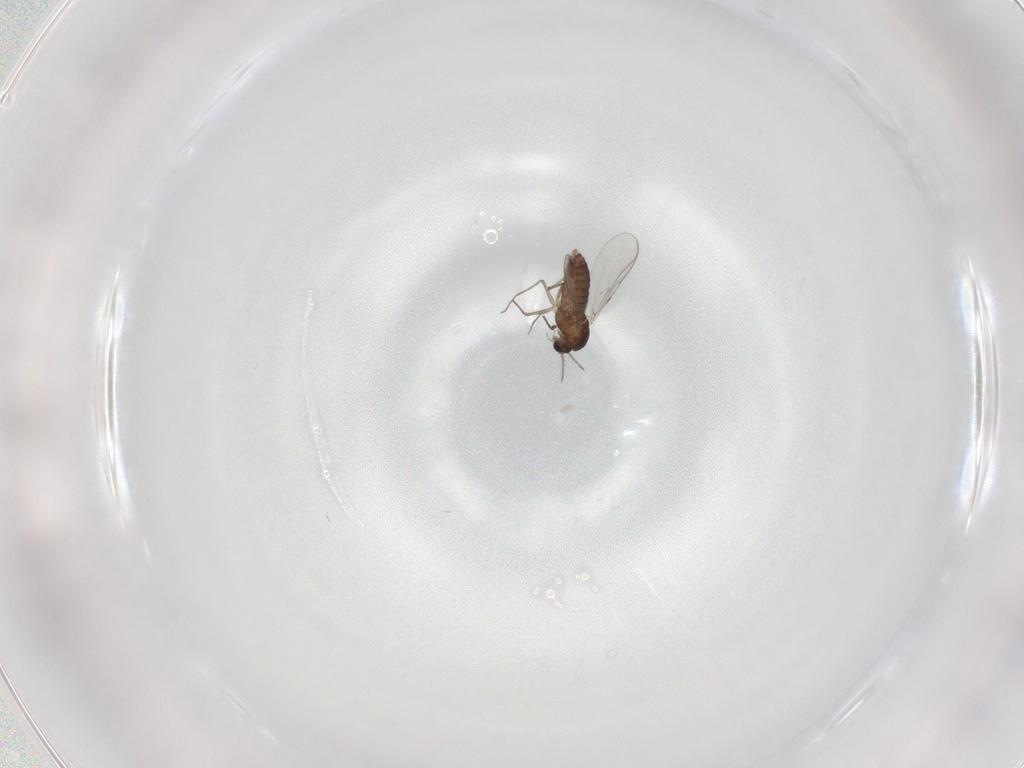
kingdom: Animalia
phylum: Arthropoda
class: Insecta
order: Diptera
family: Chironomidae
